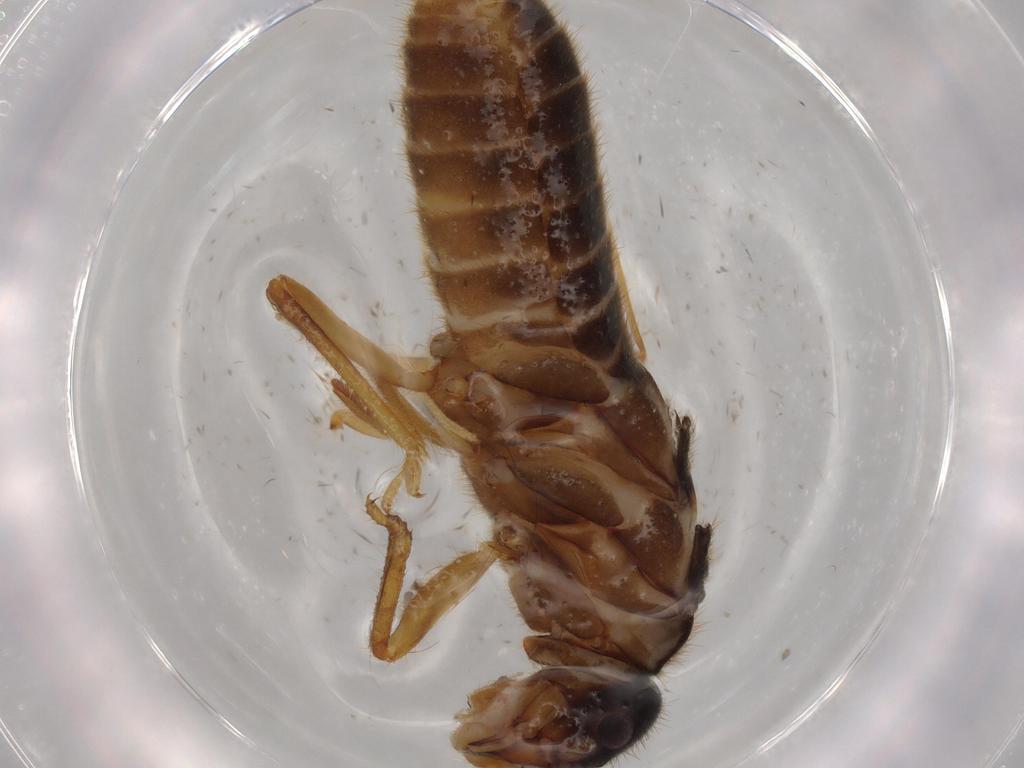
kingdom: Animalia
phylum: Arthropoda
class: Insecta
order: Blattodea
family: Termitidae
